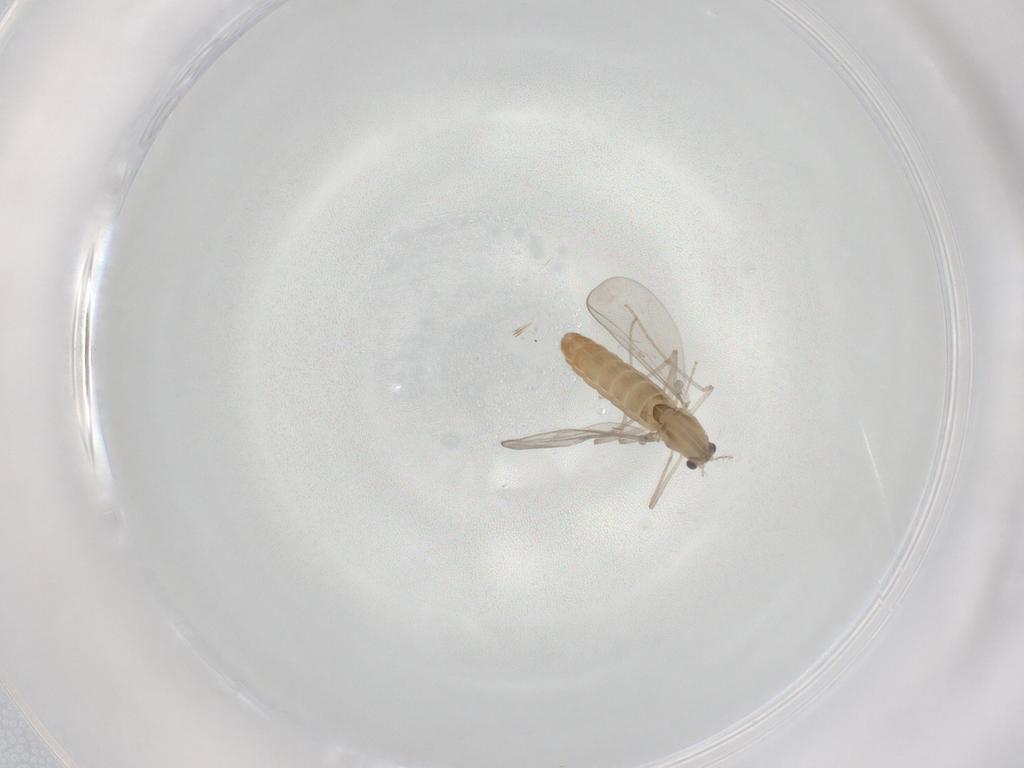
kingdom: Animalia
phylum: Arthropoda
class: Insecta
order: Diptera
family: Chironomidae
